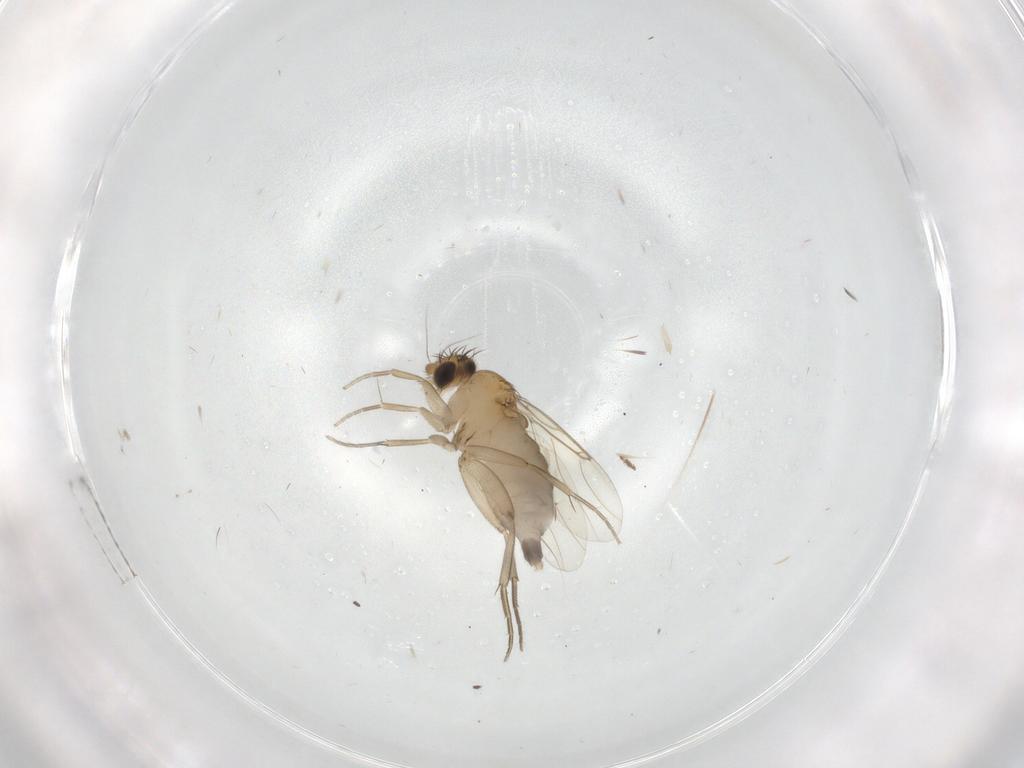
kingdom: Animalia
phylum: Arthropoda
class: Insecta
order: Diptera
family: Phoridae
